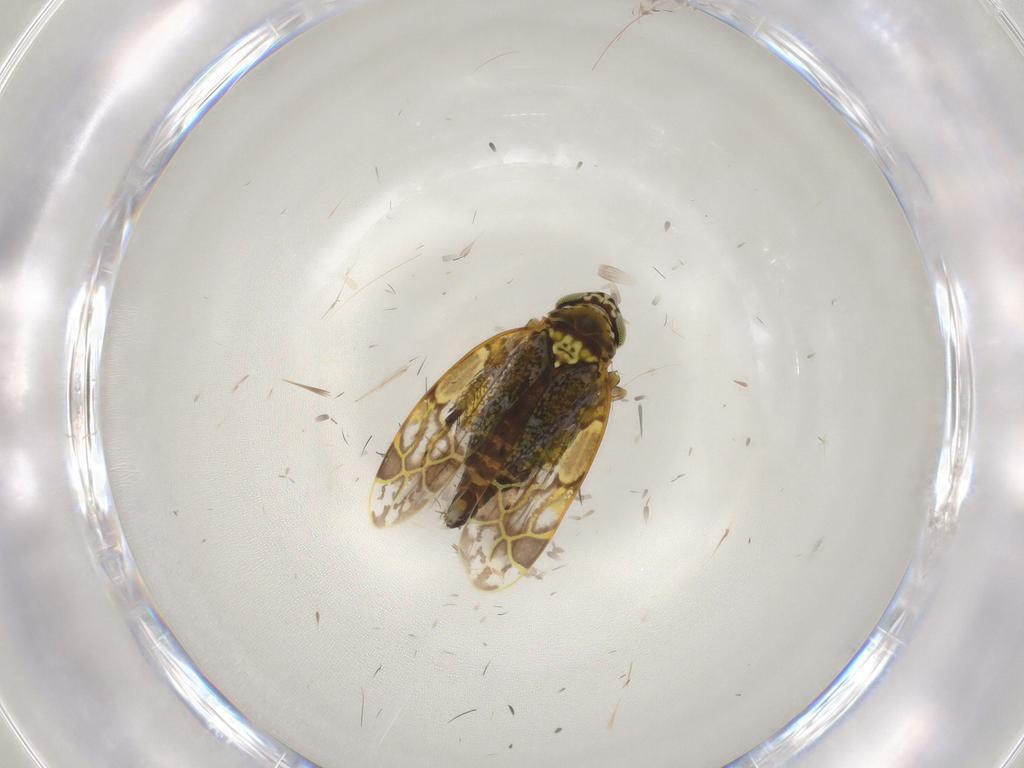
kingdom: Animalia
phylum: Arthropoda
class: Insecta
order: Hemiptera
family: Cicadellidae
